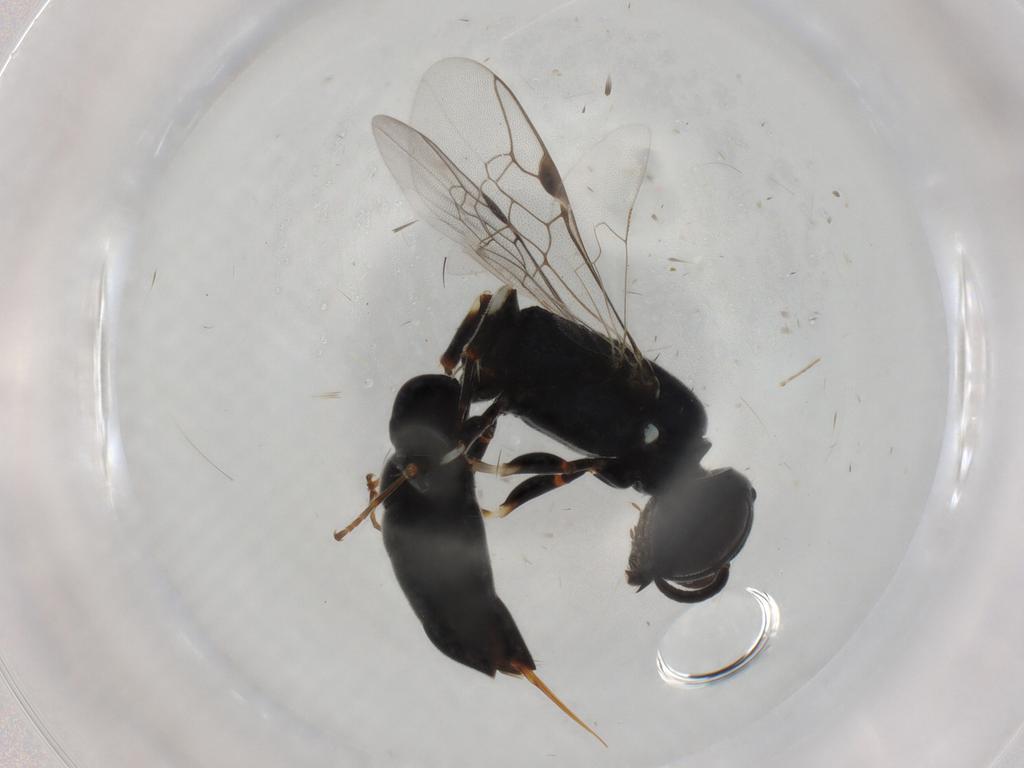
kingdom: Animalia
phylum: Arthropoda
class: Insecta
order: Hymenoptera
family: Pemphredonidae
